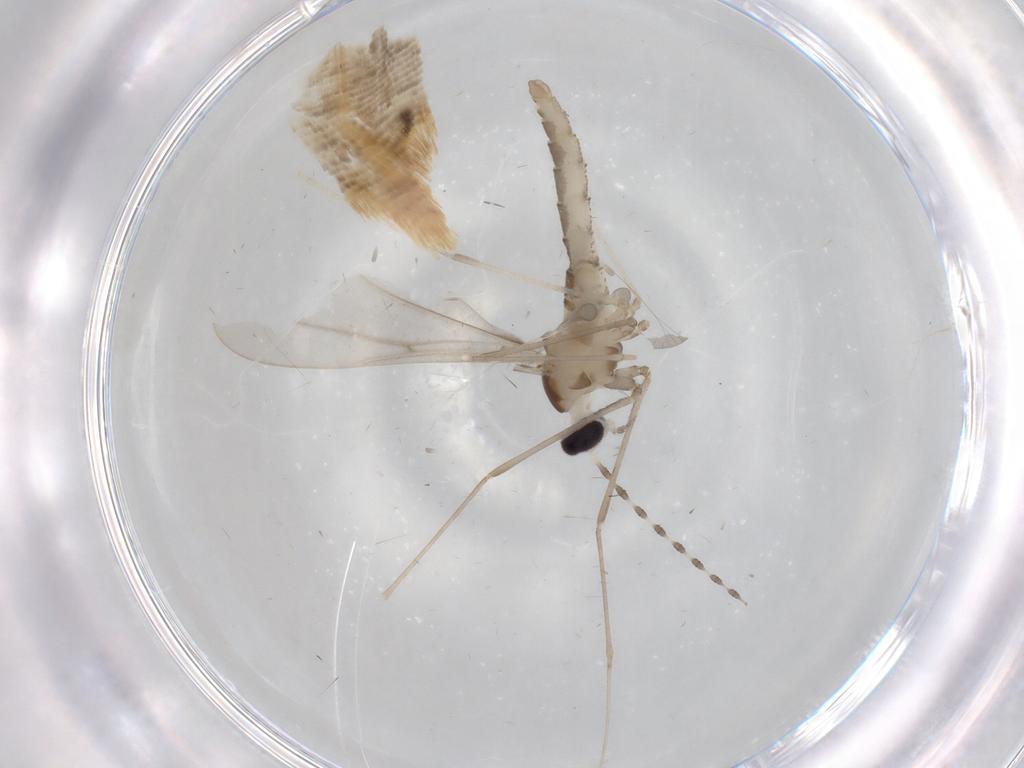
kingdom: Animalia
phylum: Arthropoda
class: Insecta
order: Diptera
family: Cecidomyiidae
